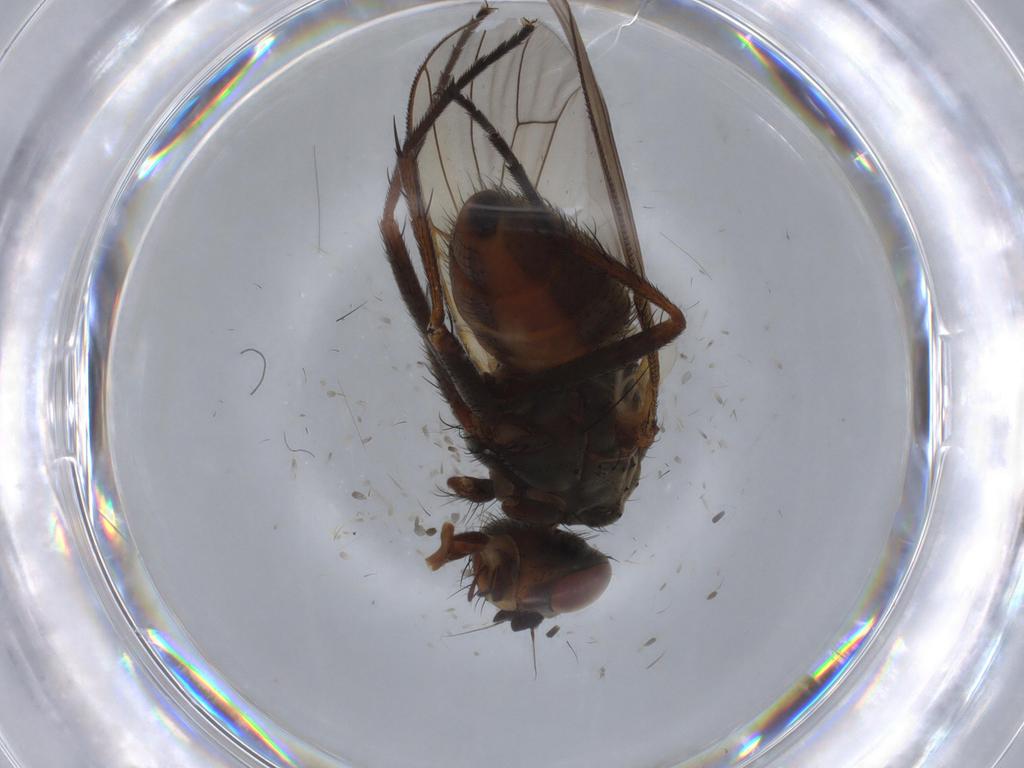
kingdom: Animalia
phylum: Arthropoda
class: Insecta
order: Diptera
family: Anthomyiidae
